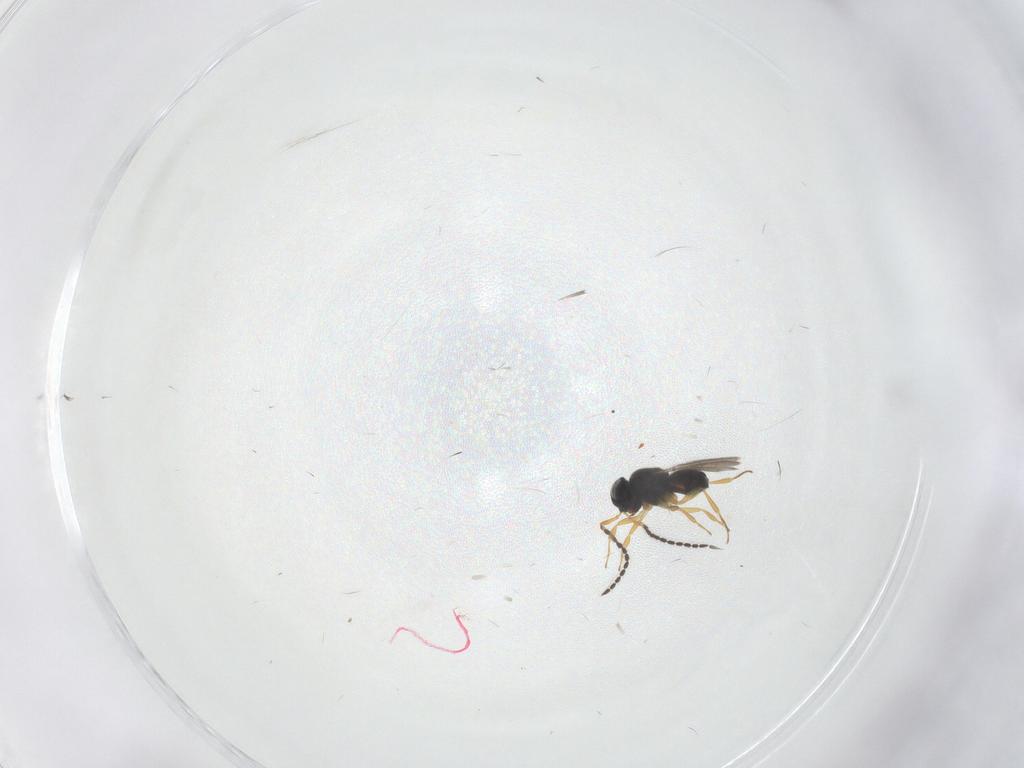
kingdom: Animalia
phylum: Arthropoda
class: Insecta
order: Hymenoptera
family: Scelionidae
